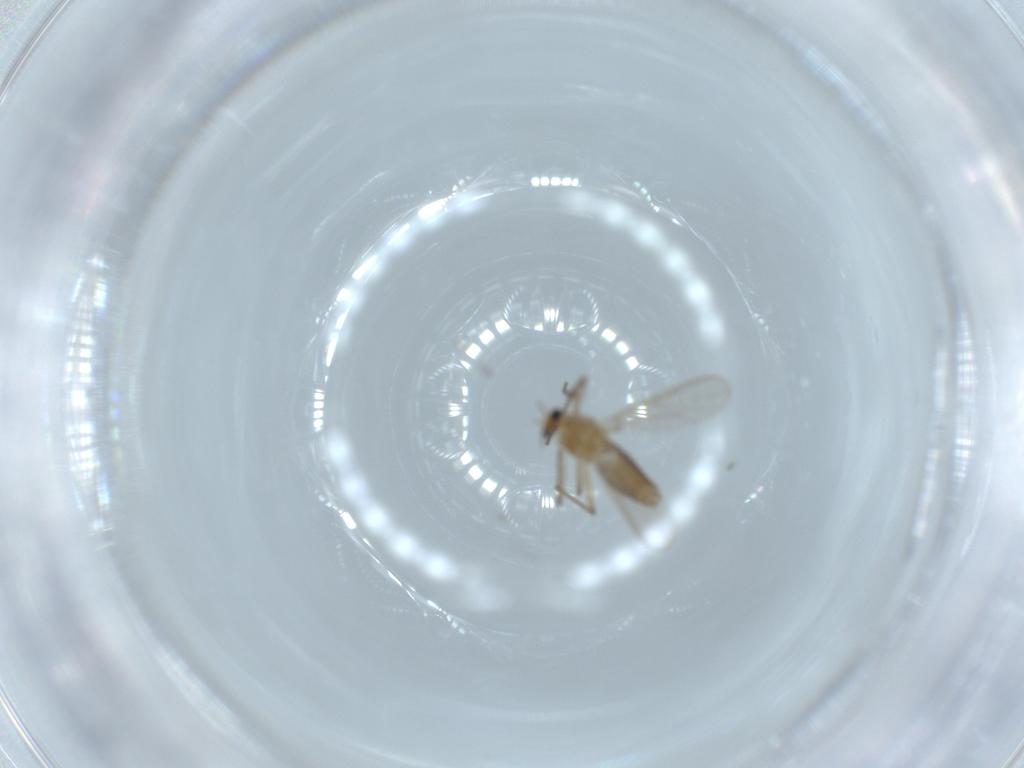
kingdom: Animalia
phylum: Arthropoda
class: Insecta
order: Diptera
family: Chironomidae
